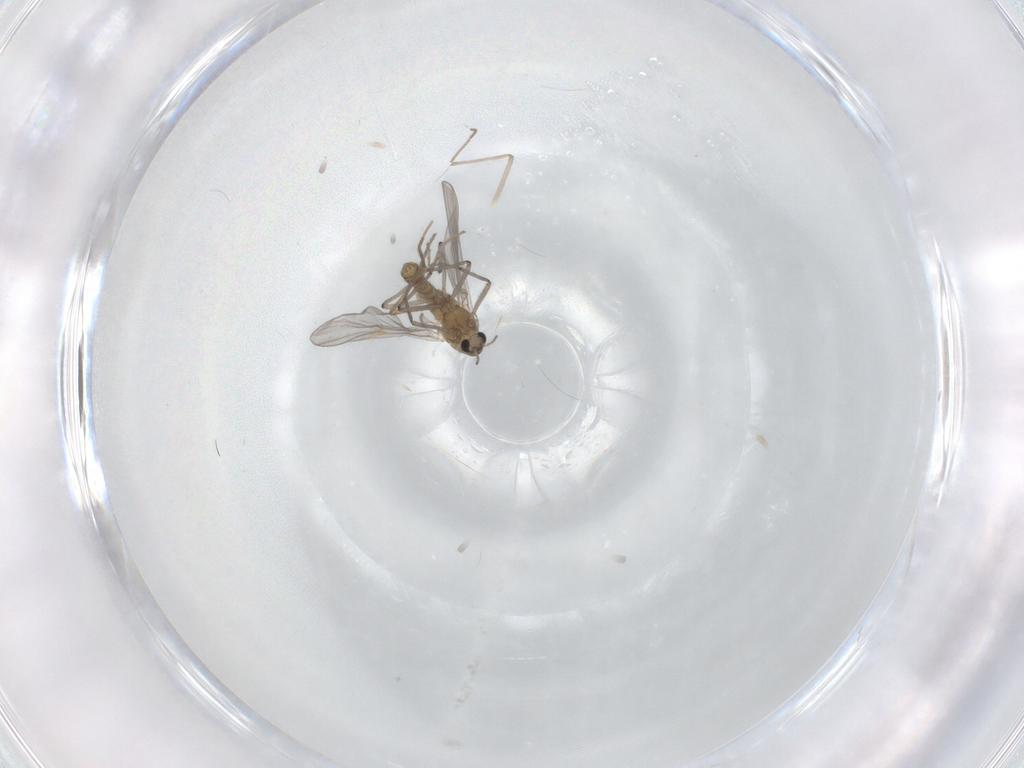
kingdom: Animalia
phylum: Arthropoda
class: Insecta
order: Diptera
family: Chironomidae
